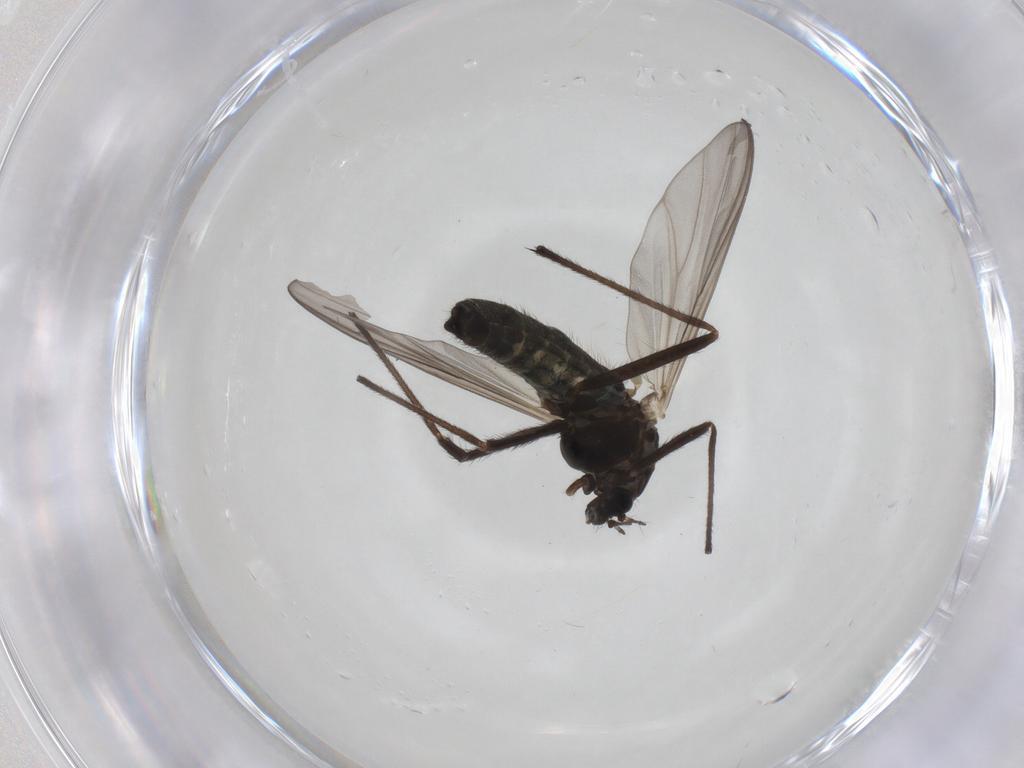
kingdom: Animalia
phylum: Arthropoda
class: Insecta
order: Diptera
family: Chironomidae
